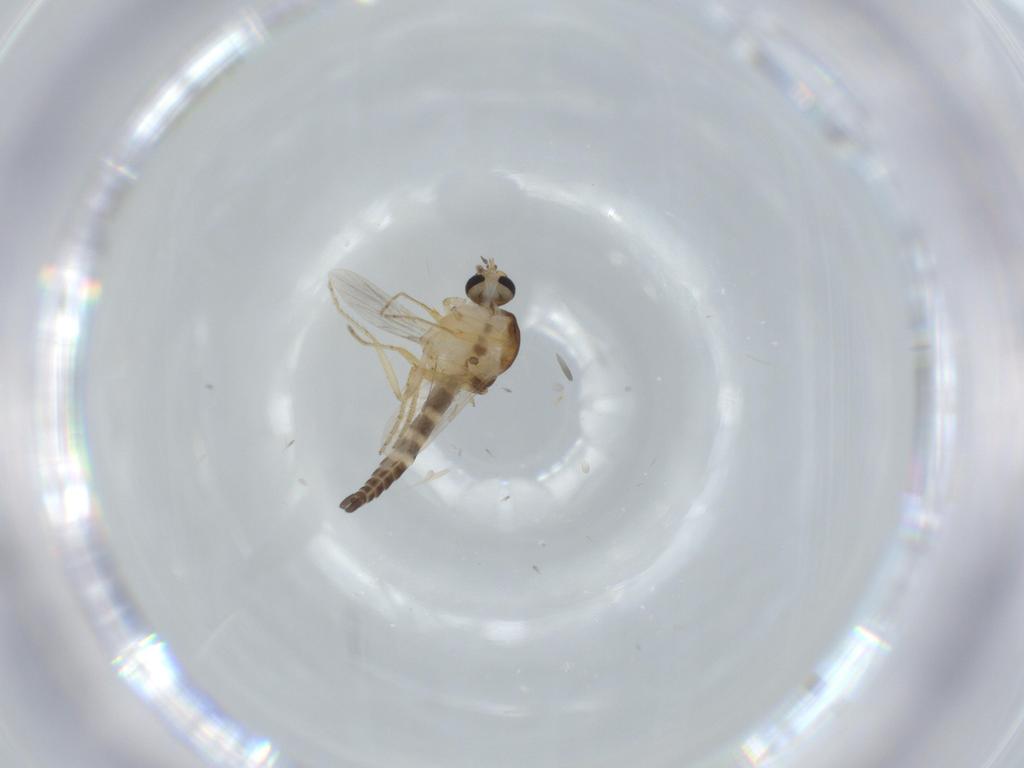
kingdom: Animalia
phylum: Arthropoda
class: Insecta
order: Diptera
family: Ceratopogonidae
